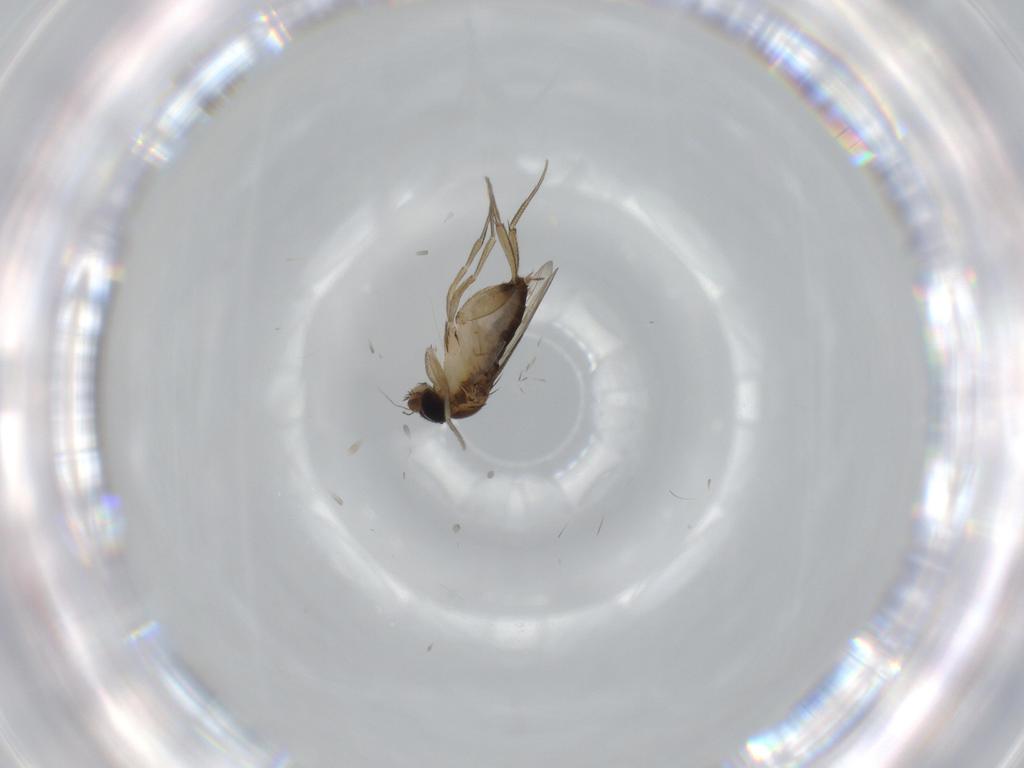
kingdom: Animalia
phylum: Arthropoda
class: Insecta
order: Diptera
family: Phoridae
